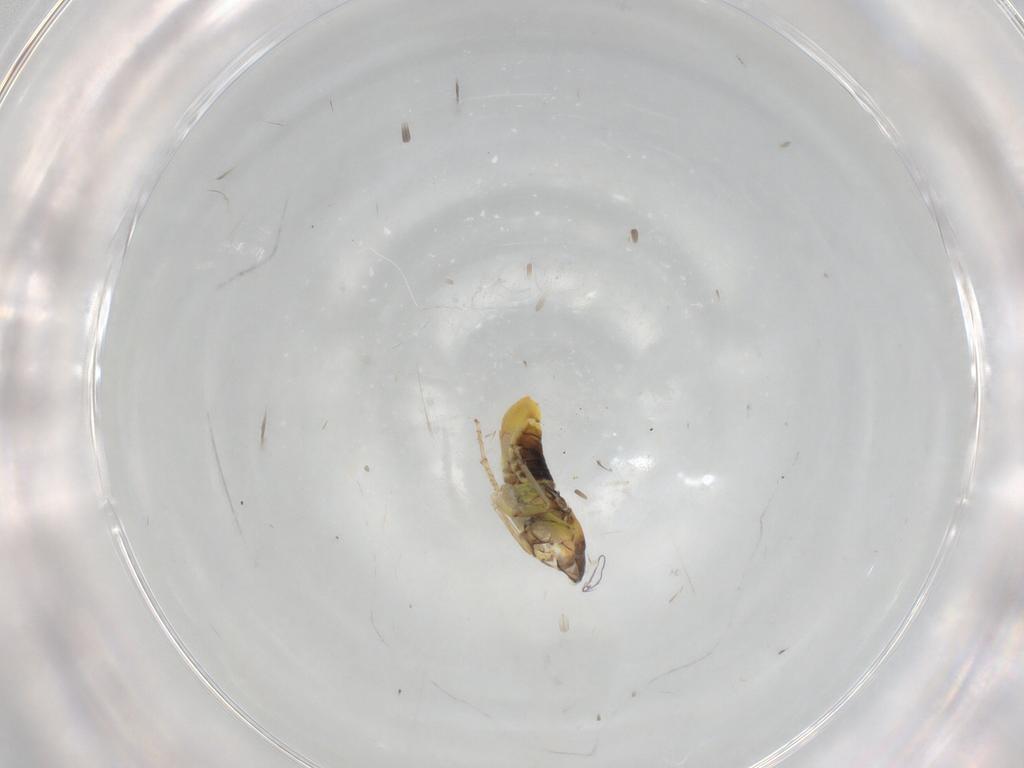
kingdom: Animalia
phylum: Arthropoda
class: Insecta
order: Hemiptera
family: Cicadellidae
